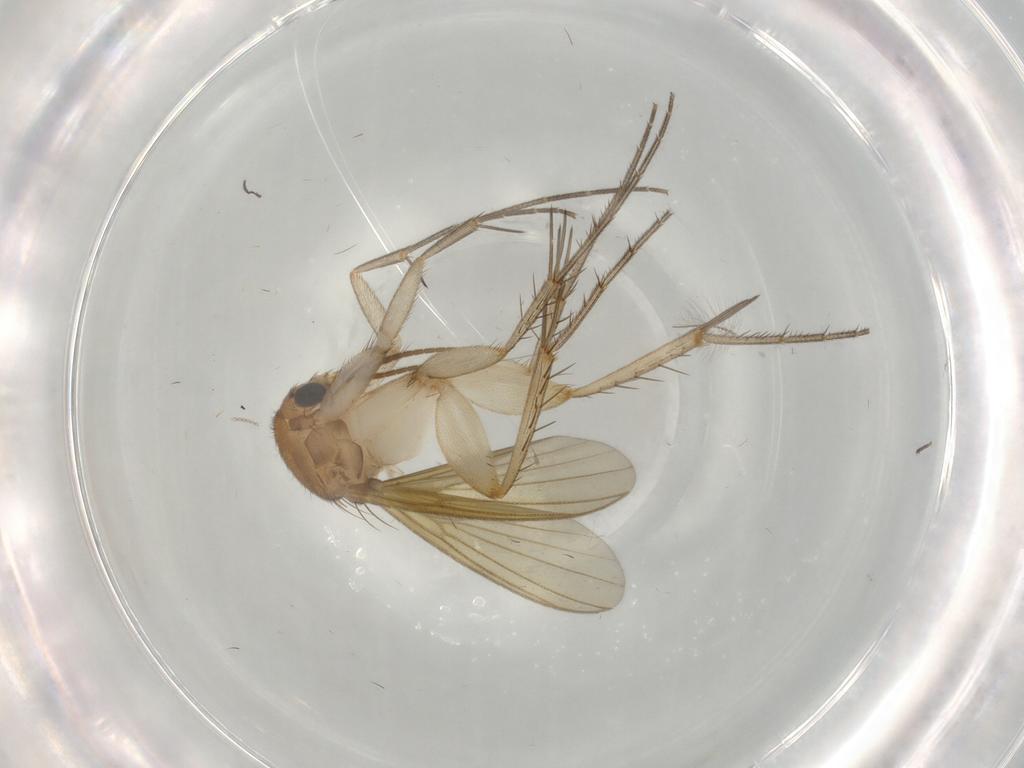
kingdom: Animalia
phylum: Arthropoda
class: Insecta
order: Diptera
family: Mycetophilidae
